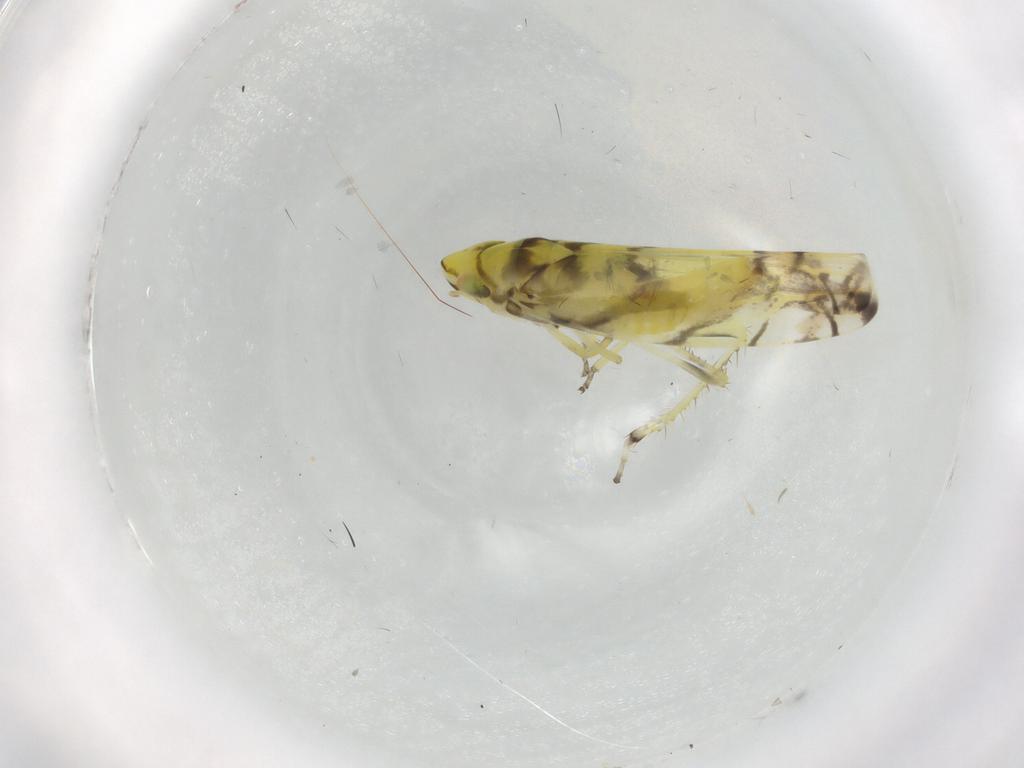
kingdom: Animalia
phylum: Arthropoda
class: Insecta
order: Hemiptera
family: Cicadellidae
